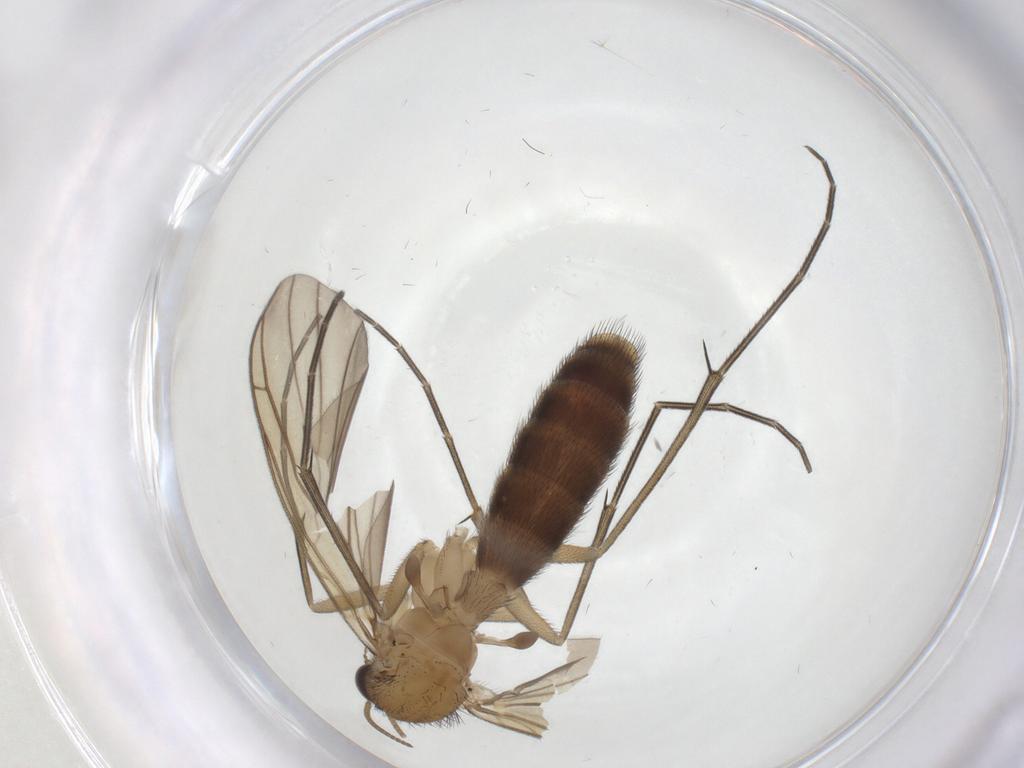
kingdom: Animalia
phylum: Arthropoda
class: Insecta
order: Diptera
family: Keroplatidae
